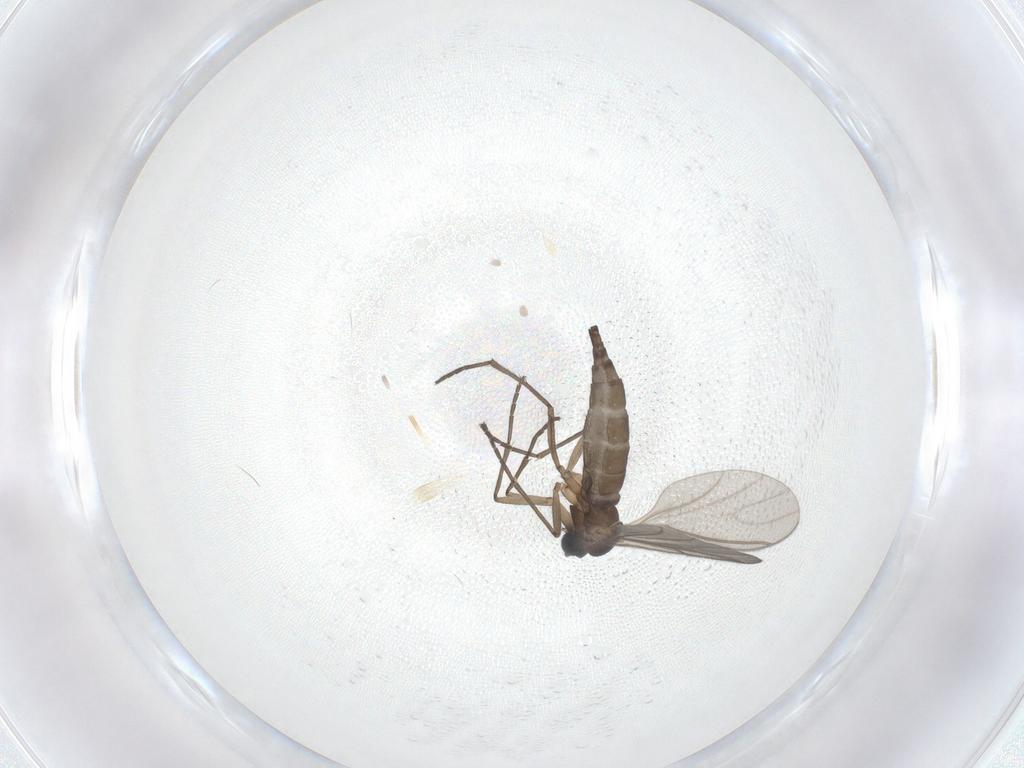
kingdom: Animalia
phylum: Arthropoda
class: Insecta
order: Diptera
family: Sciaridae
